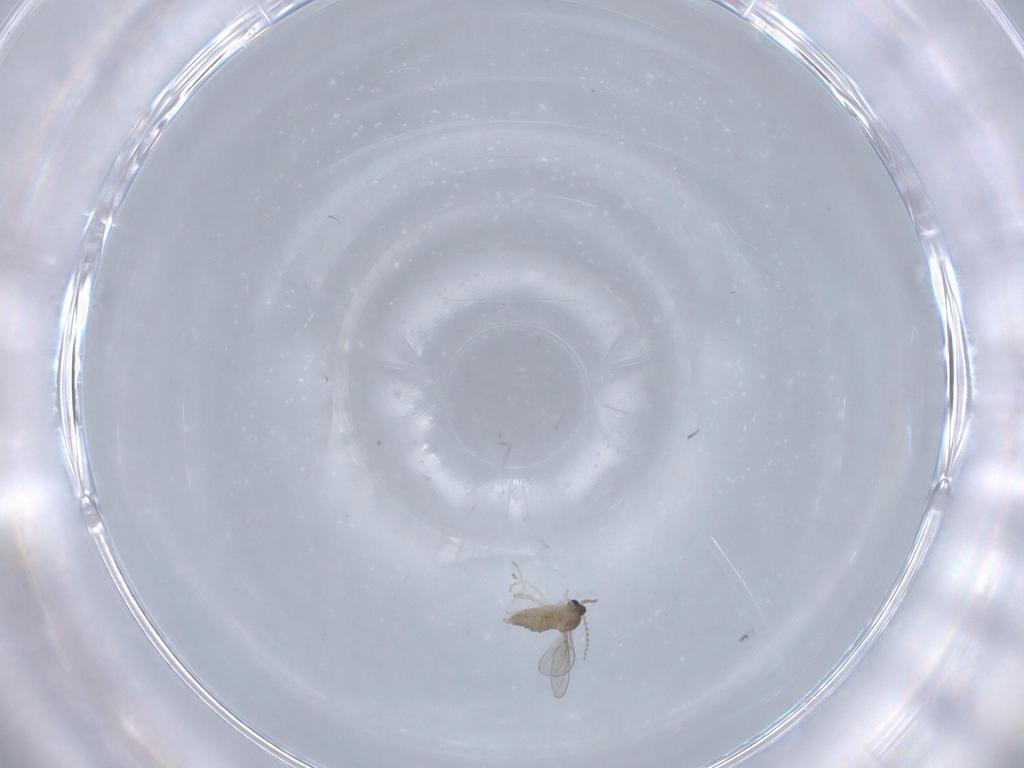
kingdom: Animalia
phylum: Arthropoda
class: Insecta
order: Diptera
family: Cecidomyiidae
